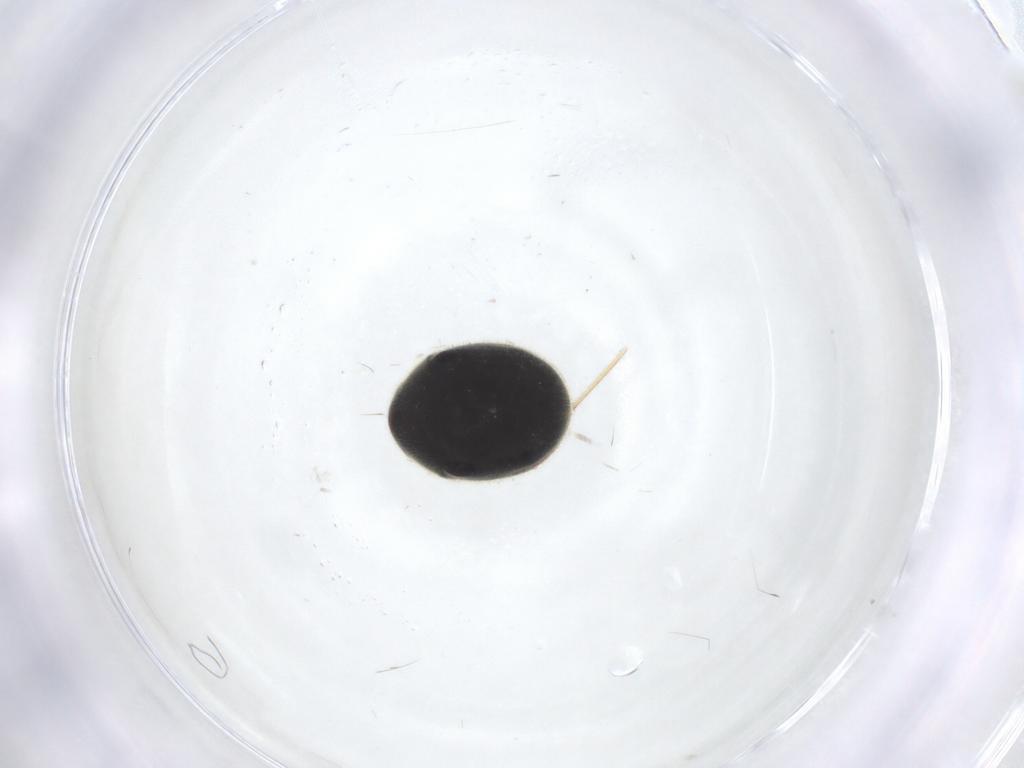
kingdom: Animalia
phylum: Arthropoda
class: Insecta
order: Coleoptera
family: Ptinidae
